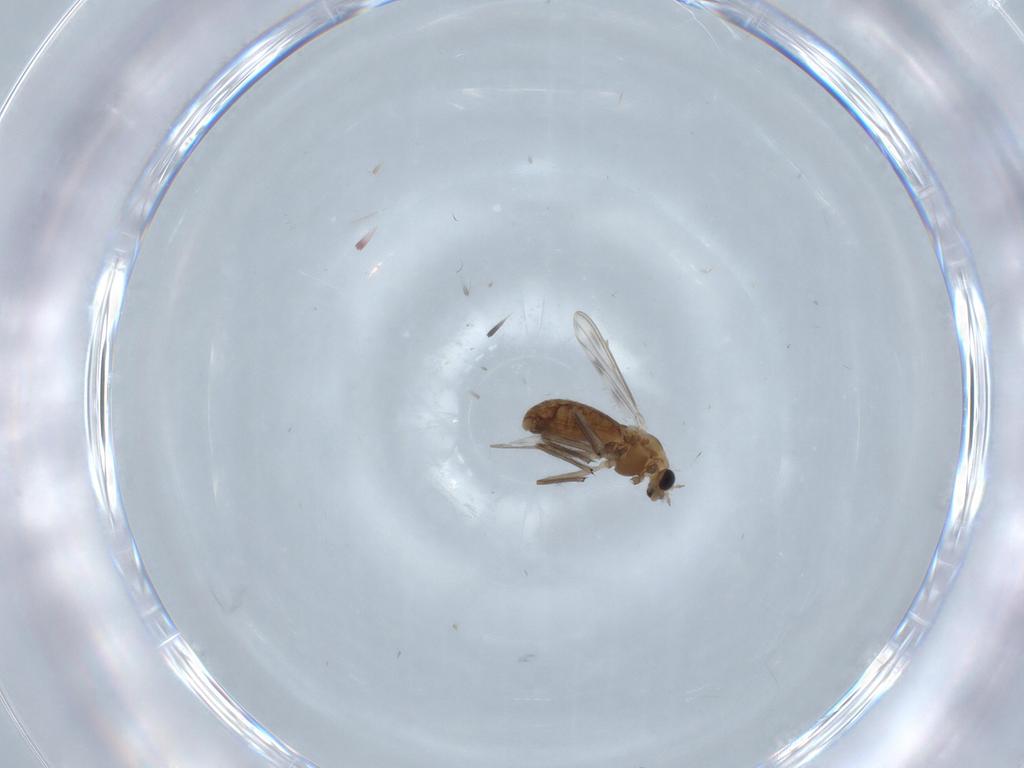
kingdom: Animalia
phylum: Arthropoda
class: Insecta
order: Diptera
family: Chironomidae
